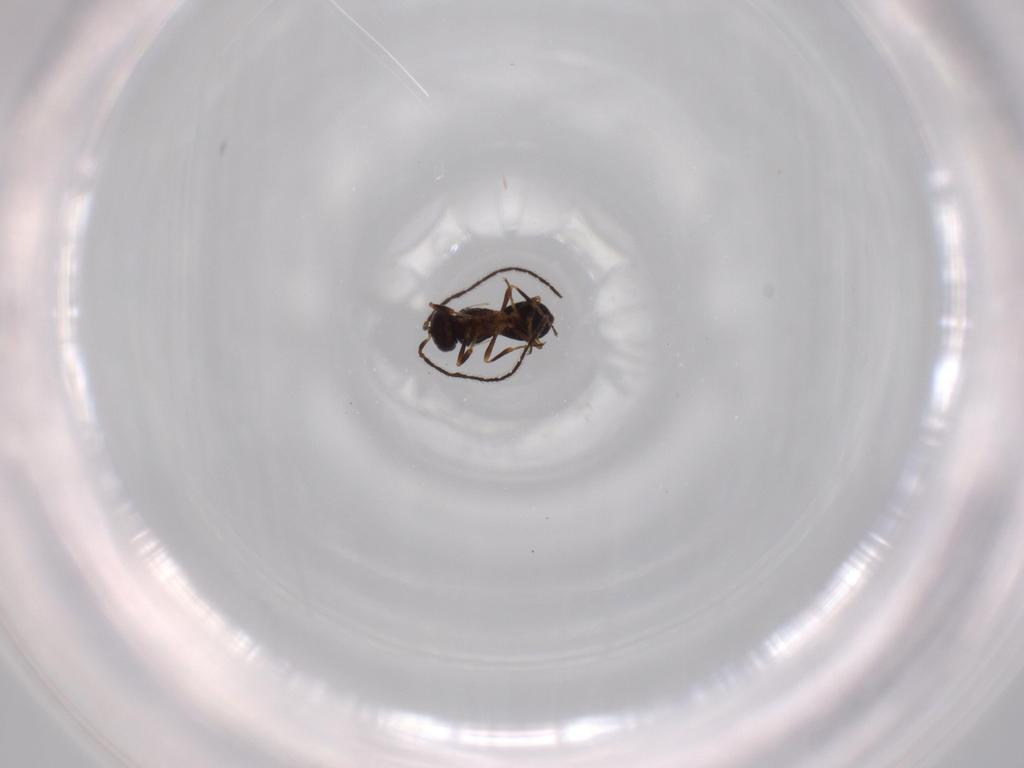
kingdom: Animalia
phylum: Arthropoda
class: Insecta
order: Hymenoptera
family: Scelionidae
